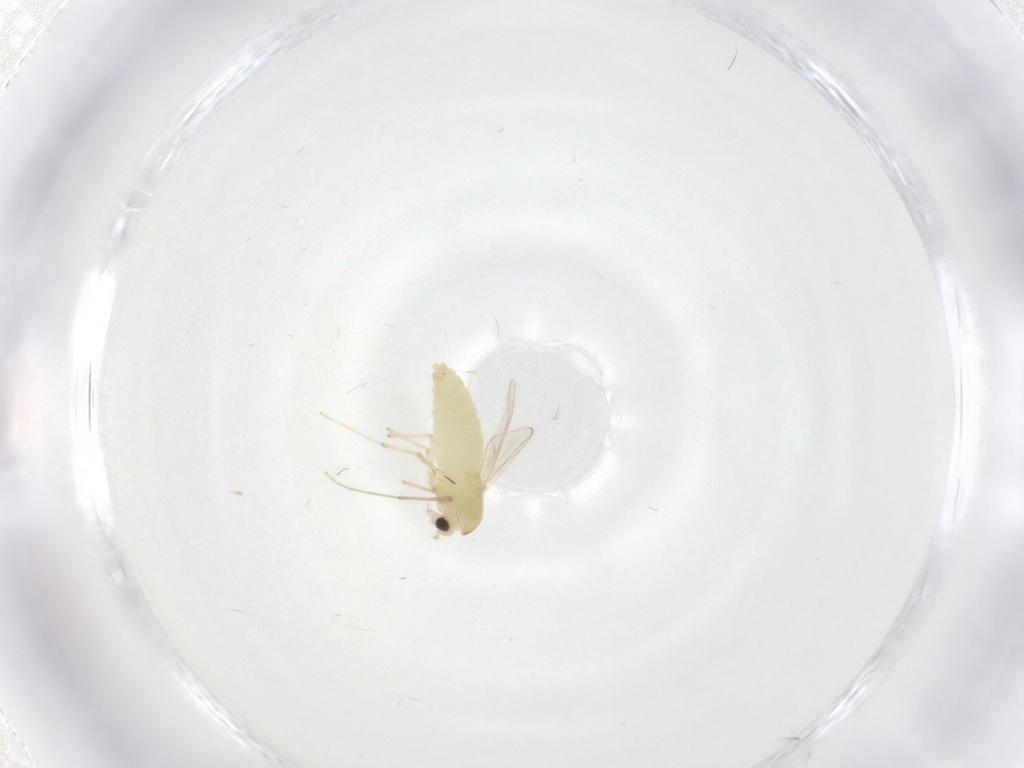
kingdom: Animalia
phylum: Arthropoda
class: Insecta
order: Diptera
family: Chironomidae
